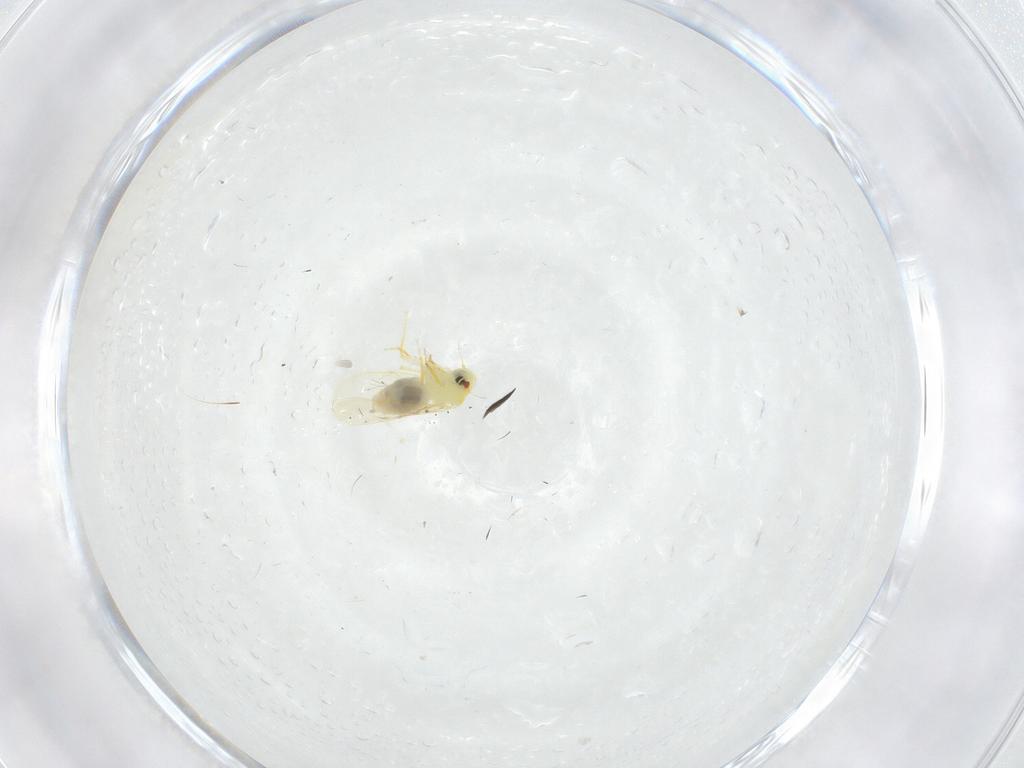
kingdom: Animalia
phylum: Arthropoda
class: Insecta
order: Hemiptera
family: Aleyrodidae
